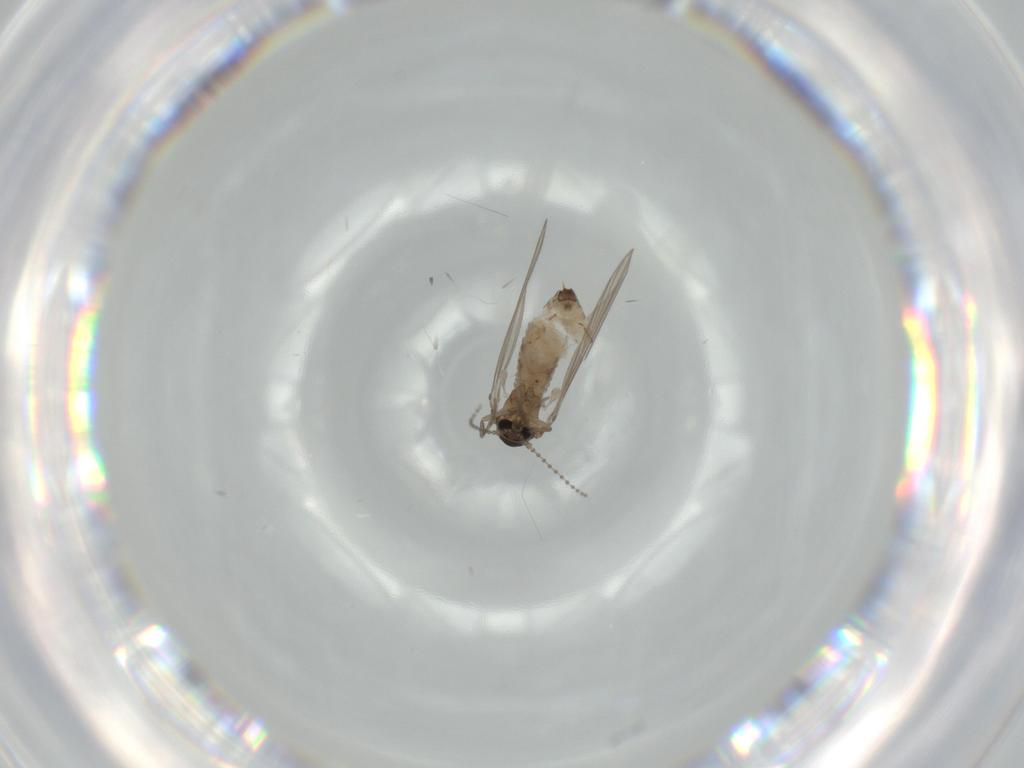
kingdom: Animalia
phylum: Arthropoda
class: Insecta
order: Diptera
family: Psychodidae
